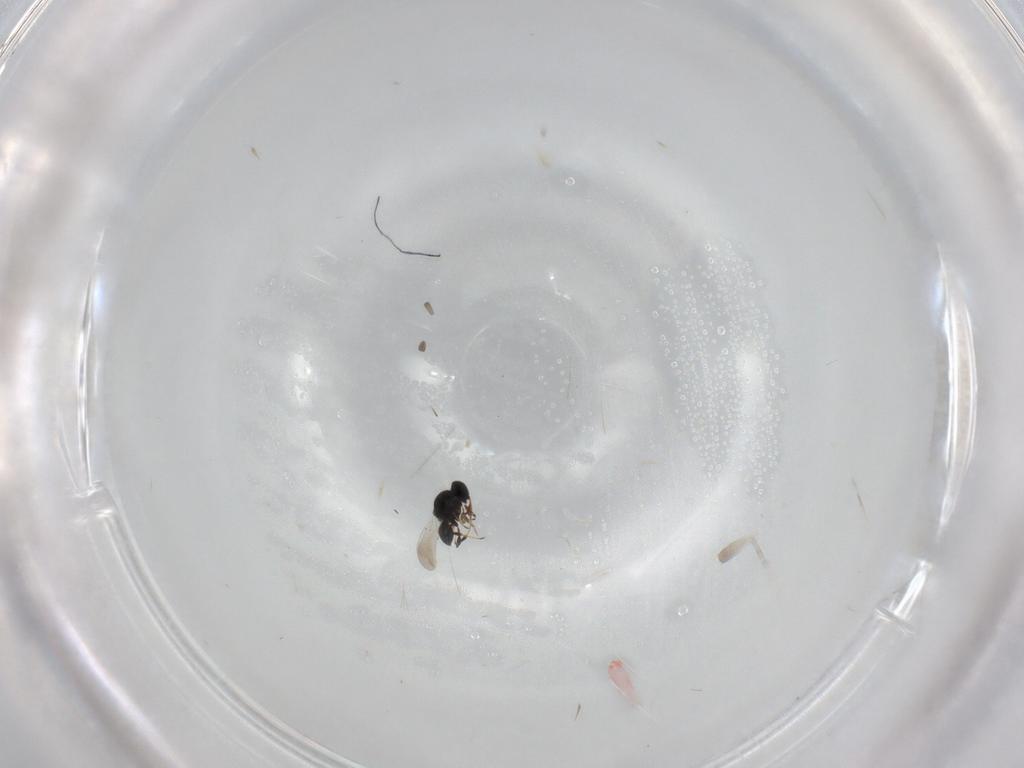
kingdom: Animalia
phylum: Arthropoda
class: Insecta
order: Hymenoptera
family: Platygastridae
